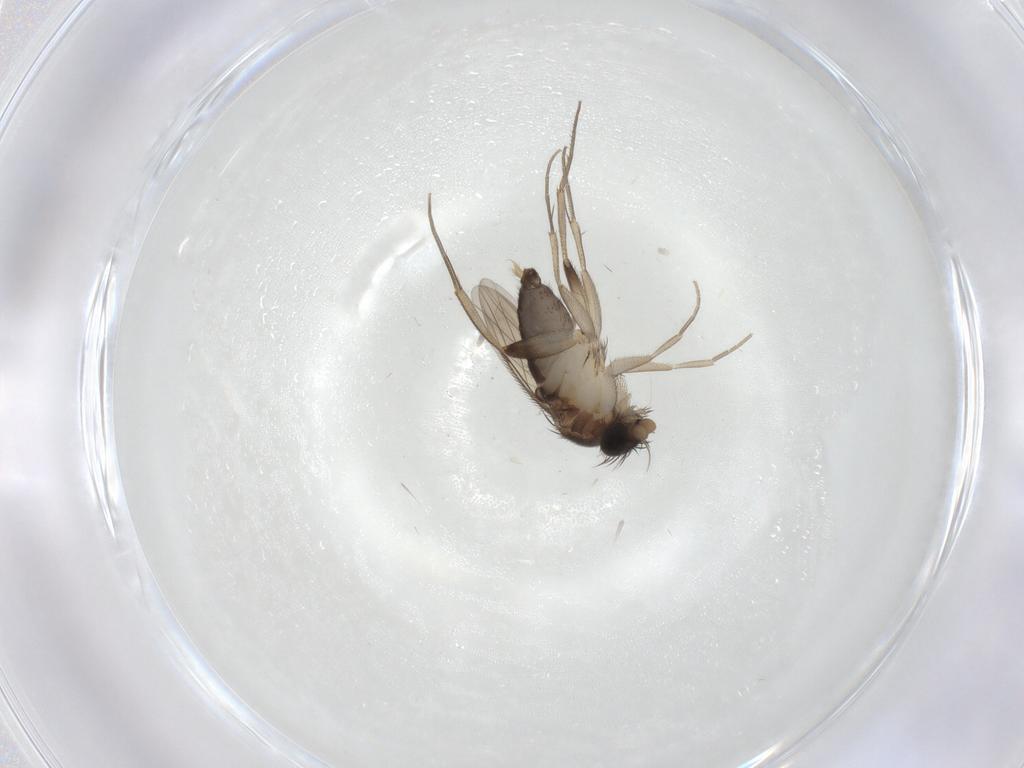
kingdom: Animalia
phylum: Arthropoda
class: Insecta
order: Diptera
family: Phoridae
